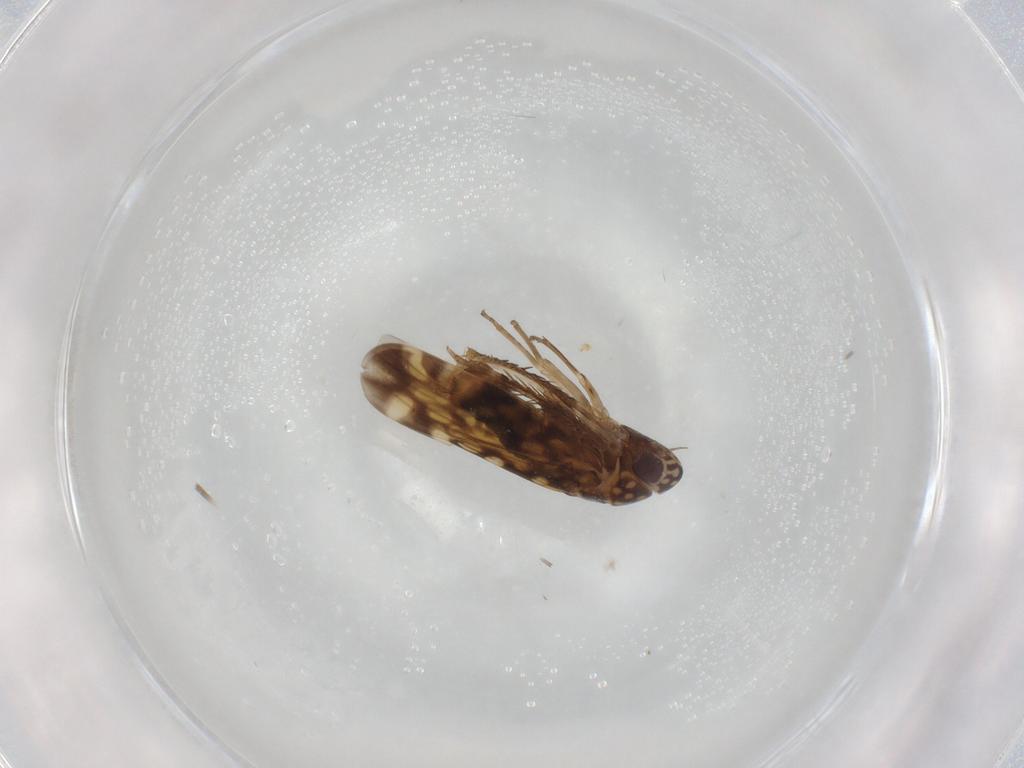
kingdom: Animalia
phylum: Arthropoda
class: Insecta
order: Hemiptera
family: Cicadellidae
